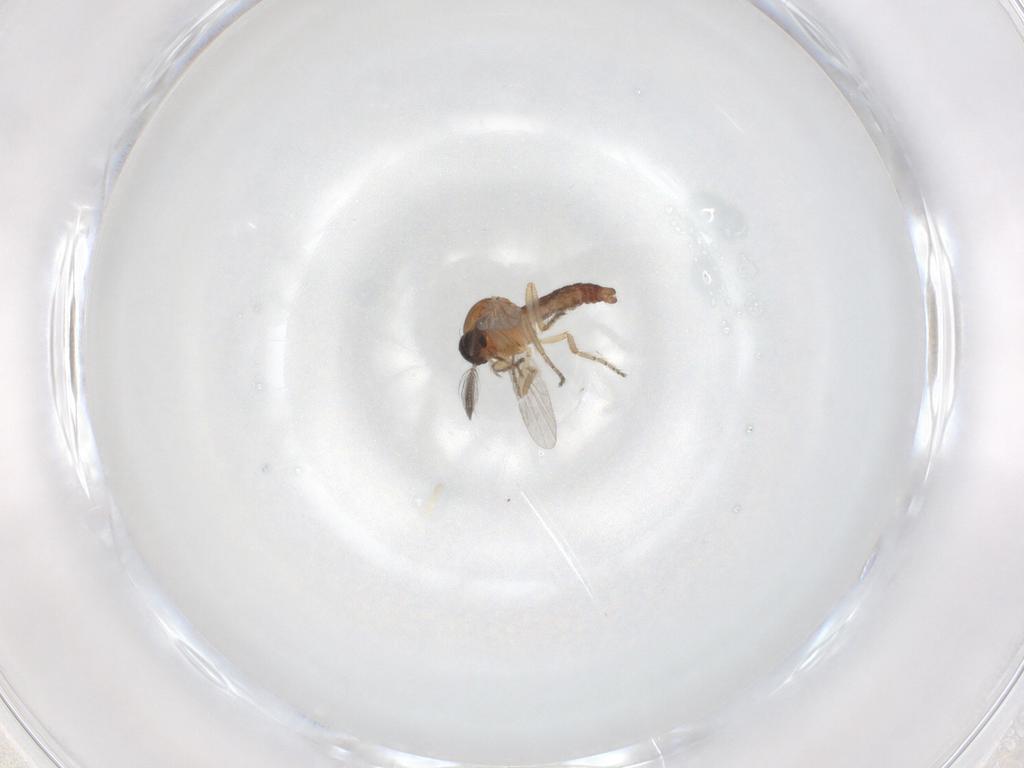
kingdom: Animalia
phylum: Arthropoda
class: Insecta
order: Diptera
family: Ceratopogonidae
